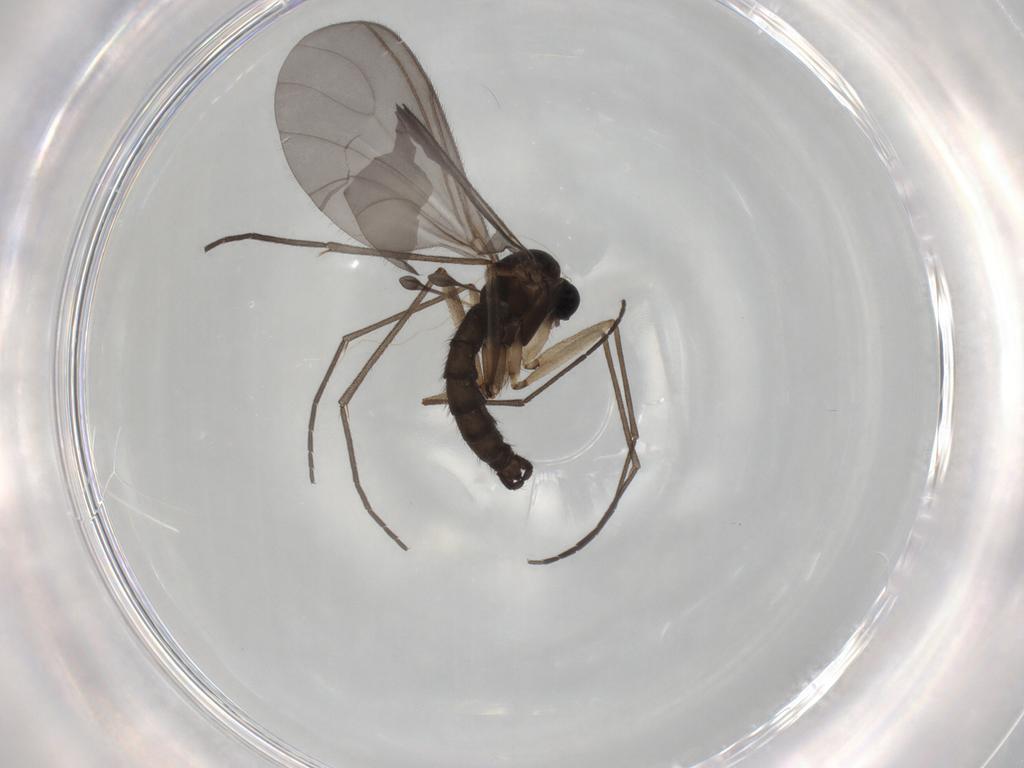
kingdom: Animalia
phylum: Arthropoda
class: Insecta
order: Diptera
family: Sciaridae
